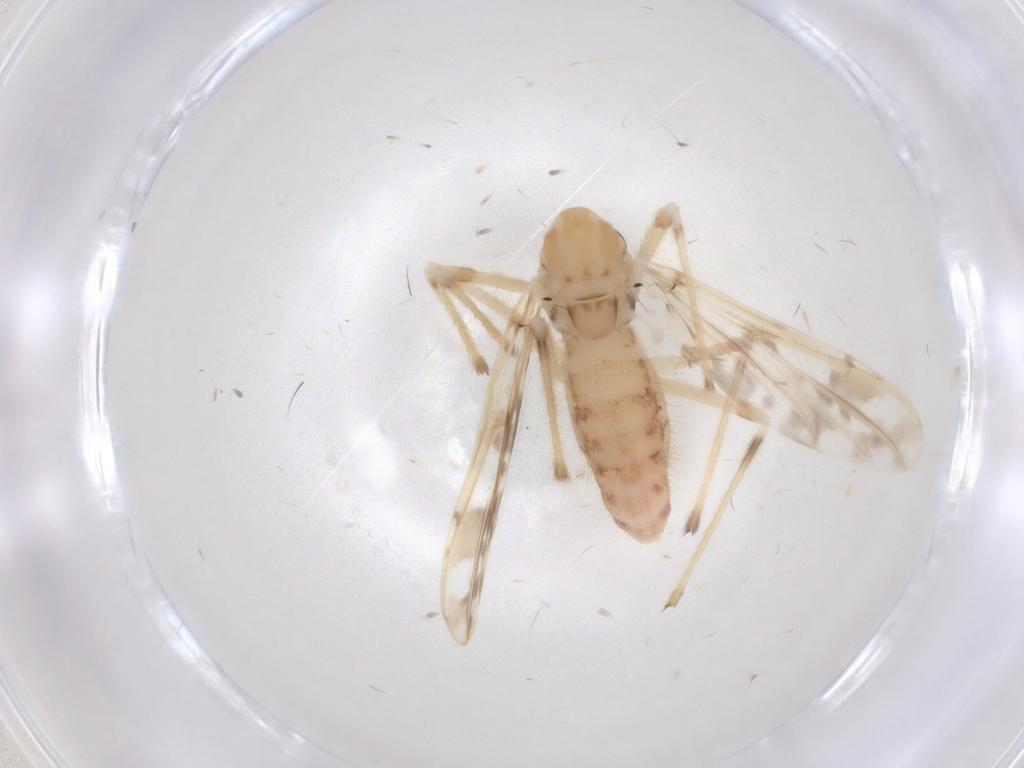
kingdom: Animalia
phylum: Arthropoda
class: Insecta
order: Diptera
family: Chironomidae
